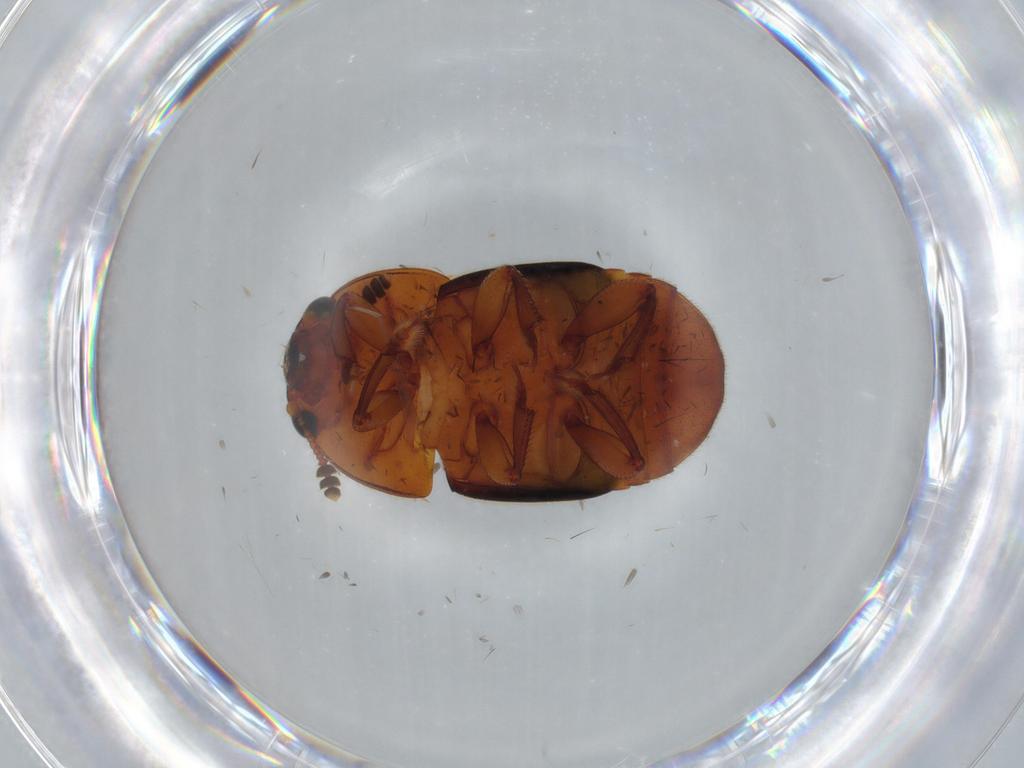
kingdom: Animalia
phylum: Arthropoda
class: Insecta
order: Coleoptera
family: Nitidulidae
